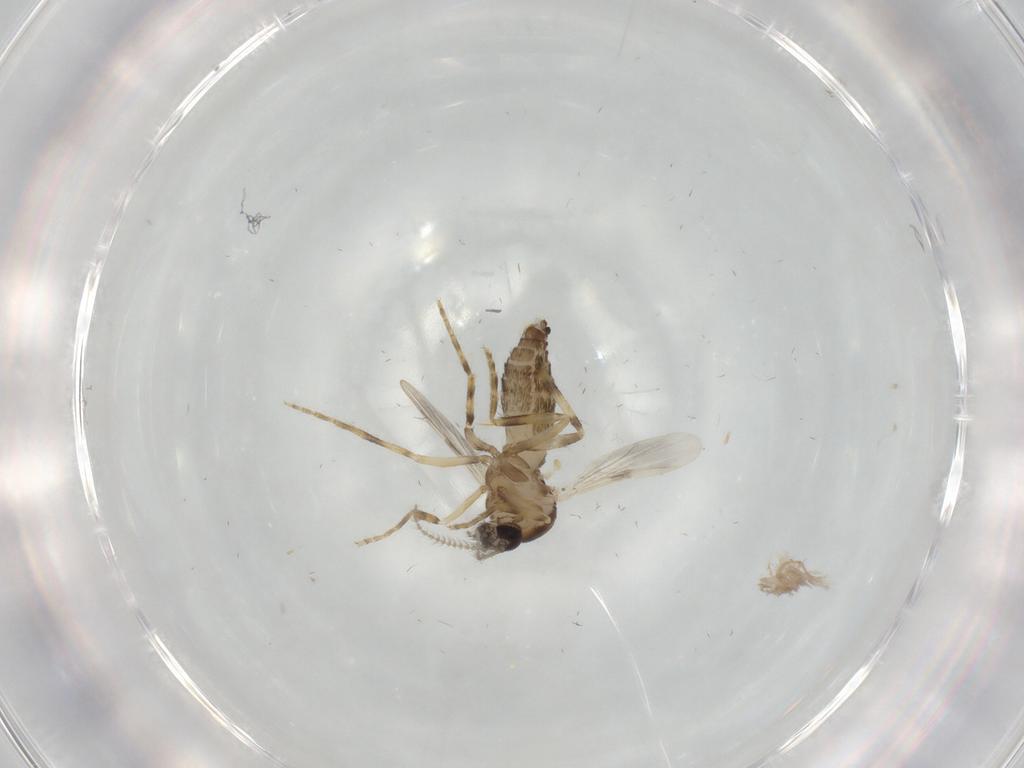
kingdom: Animalia
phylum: Arthropoda
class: Insecta
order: Diptera
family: Ceratopogonidae
